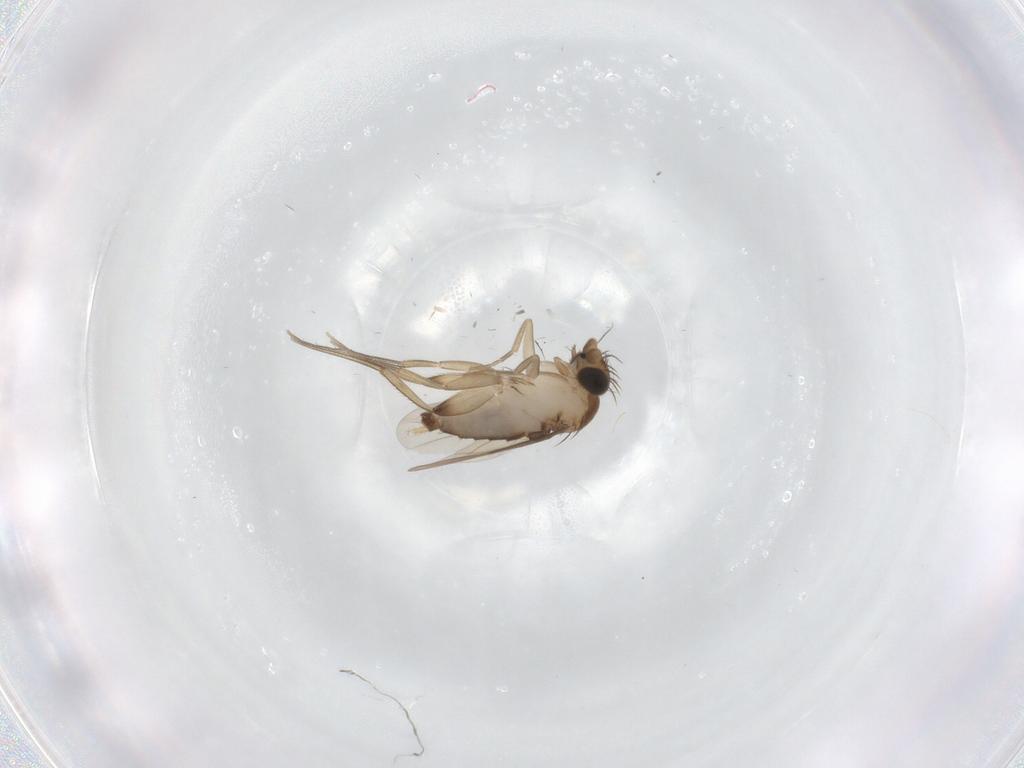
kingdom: Animalia
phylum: Arthropoda
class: Insecta
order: Diptera
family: Phoridae
